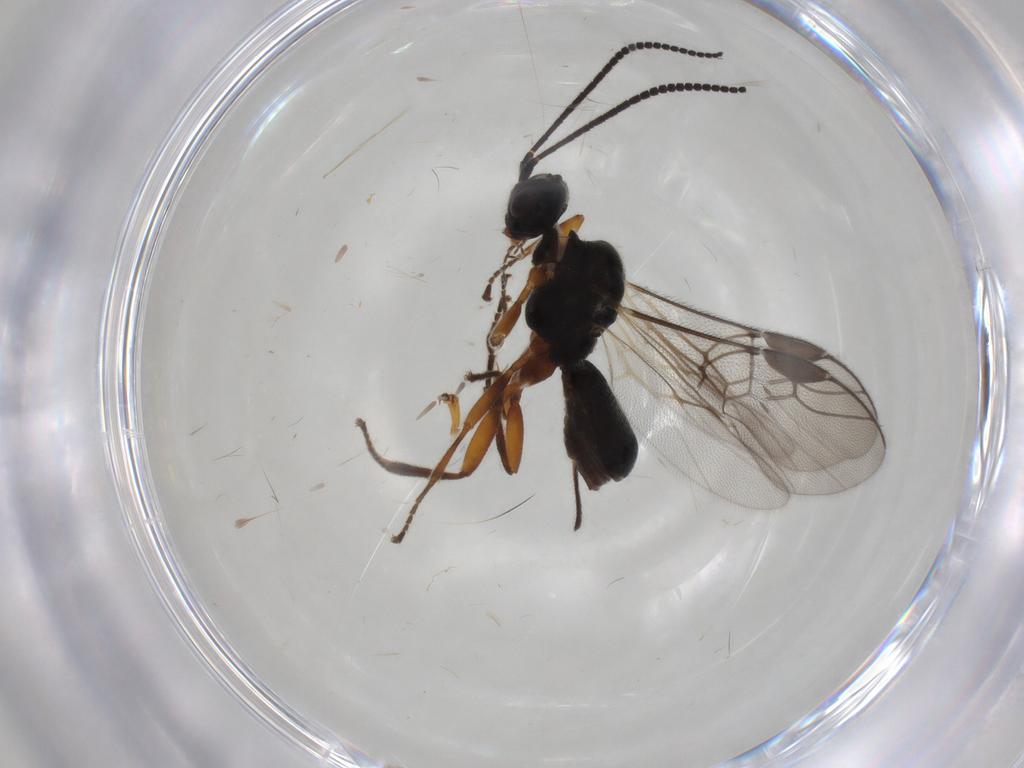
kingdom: Animalia
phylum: Arthropoda
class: Insecta
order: Hymenoptera
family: Braconidae
